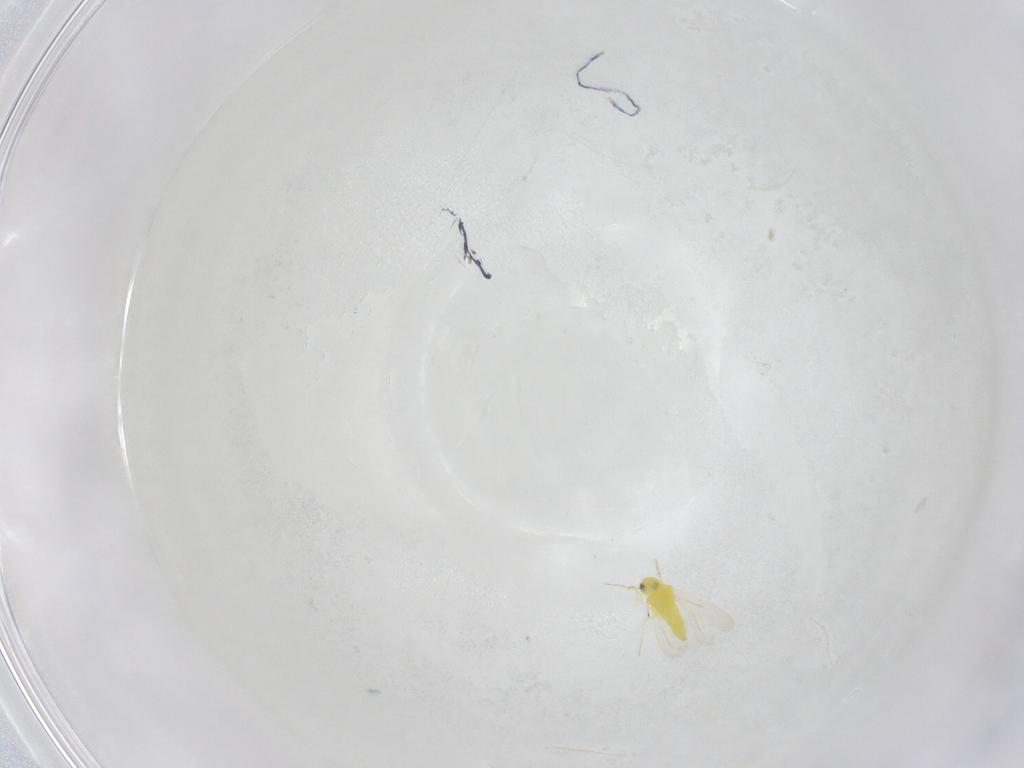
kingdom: Animalia
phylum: Arthropoda
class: Insecta
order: Hemiptera
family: Aleyrodidae
